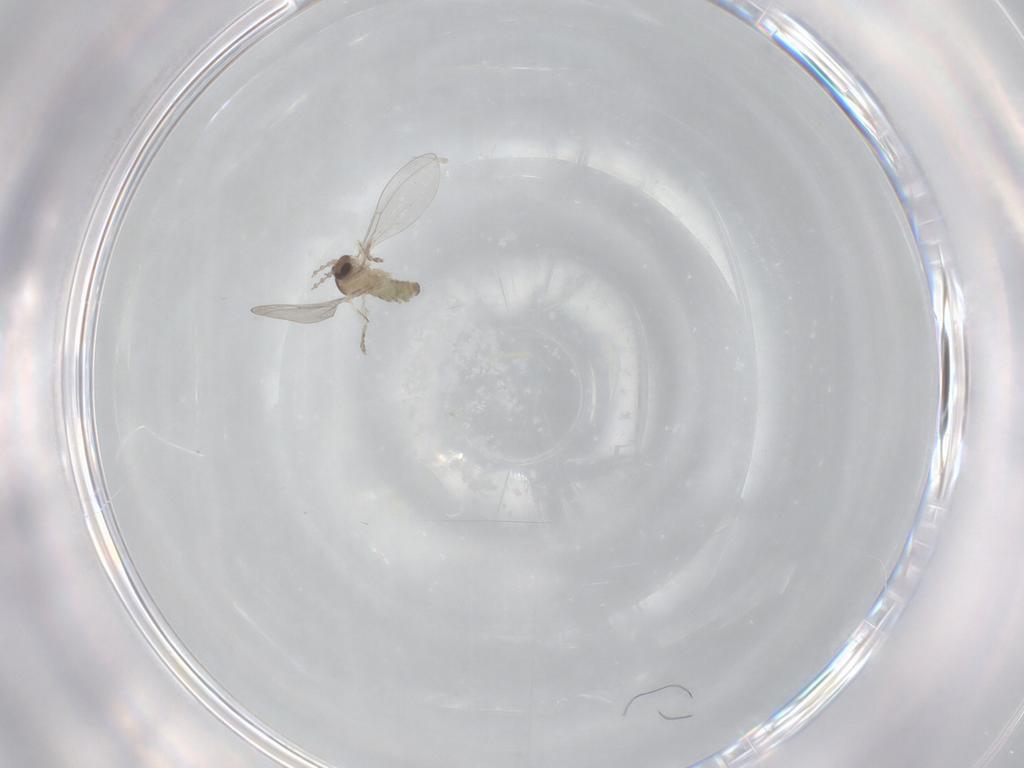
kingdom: Animalia
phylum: Arthropoda
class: Insecta
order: Diptera
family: Cecidomyiidae
